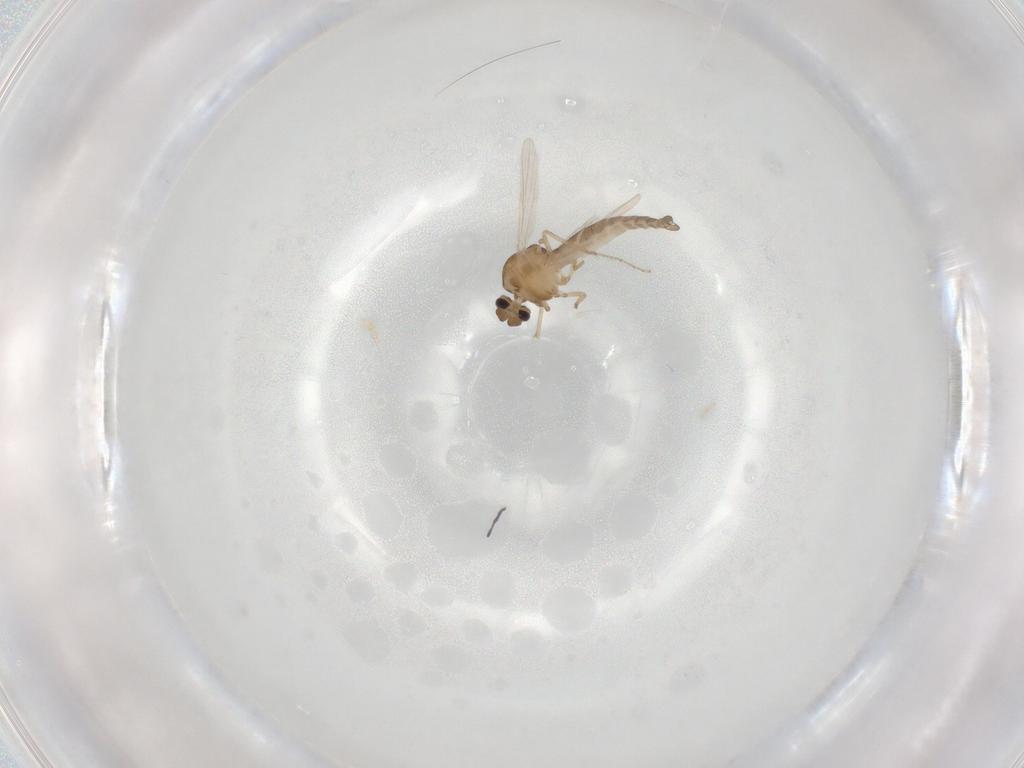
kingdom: Animalia
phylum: Arthropoda
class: Insecta
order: Diptera
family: Ceratopogonidae
